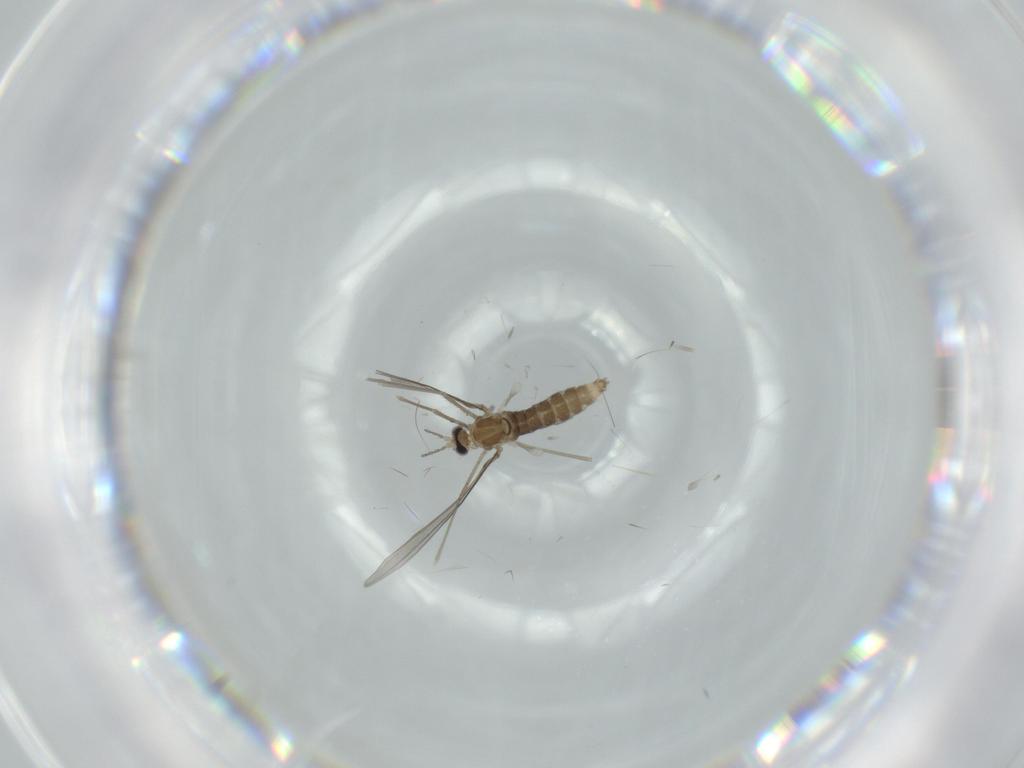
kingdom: Animalia
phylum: Arthropoda
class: Insecta
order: Diptera
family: Cecidomyiidae
